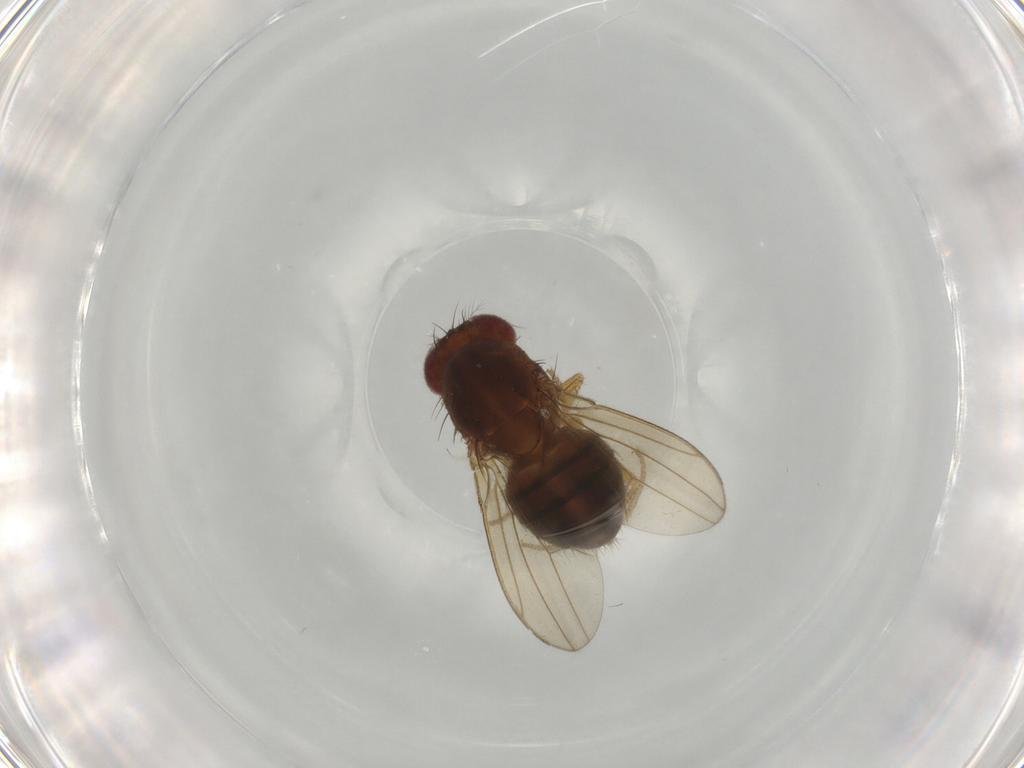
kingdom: Animalia
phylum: Arthropoda
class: Insecta
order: Diptera
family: Drosophilidae
